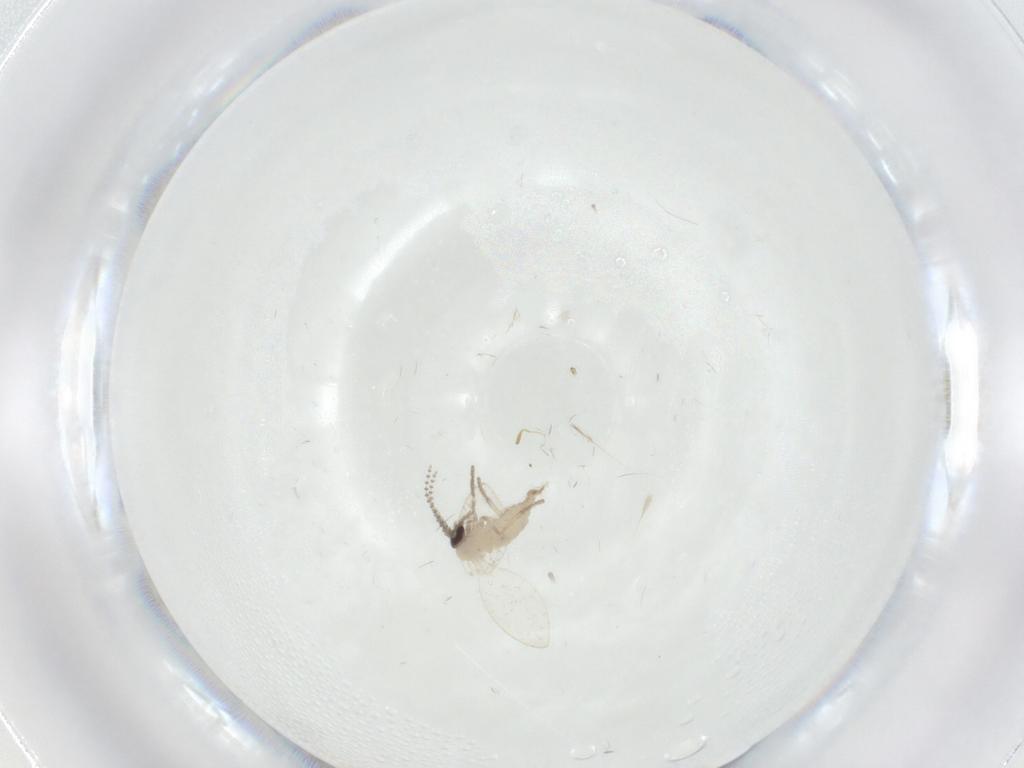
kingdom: Animalia
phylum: Arthropoda
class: Insecta
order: Diptera
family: Psychodidae
